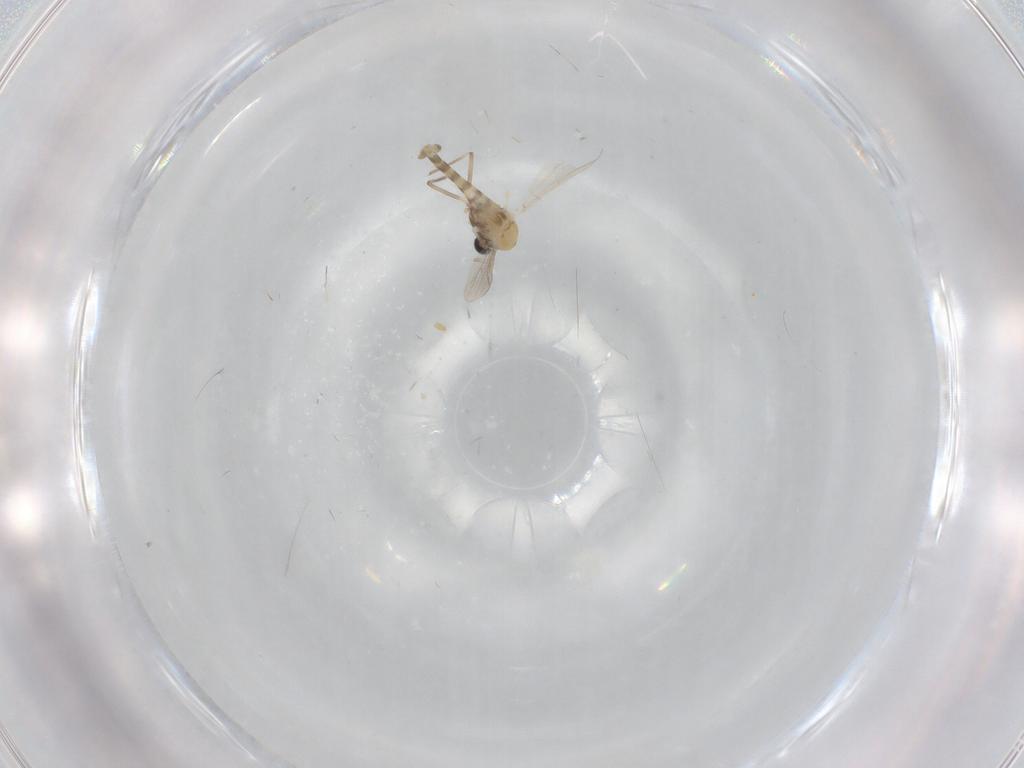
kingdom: Animalia
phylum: Arthropoda
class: Insecta
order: Diptera
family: Chironomidae
